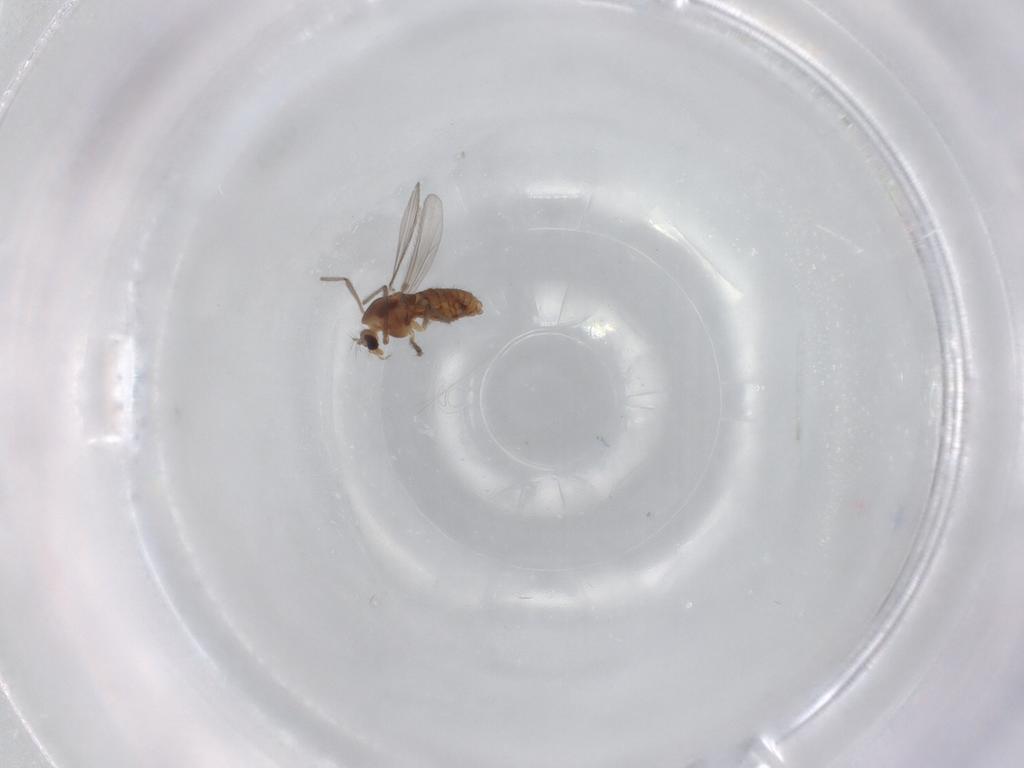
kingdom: Animalia
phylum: Arthropoda
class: Insecta
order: Diptera
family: Chironomidae
